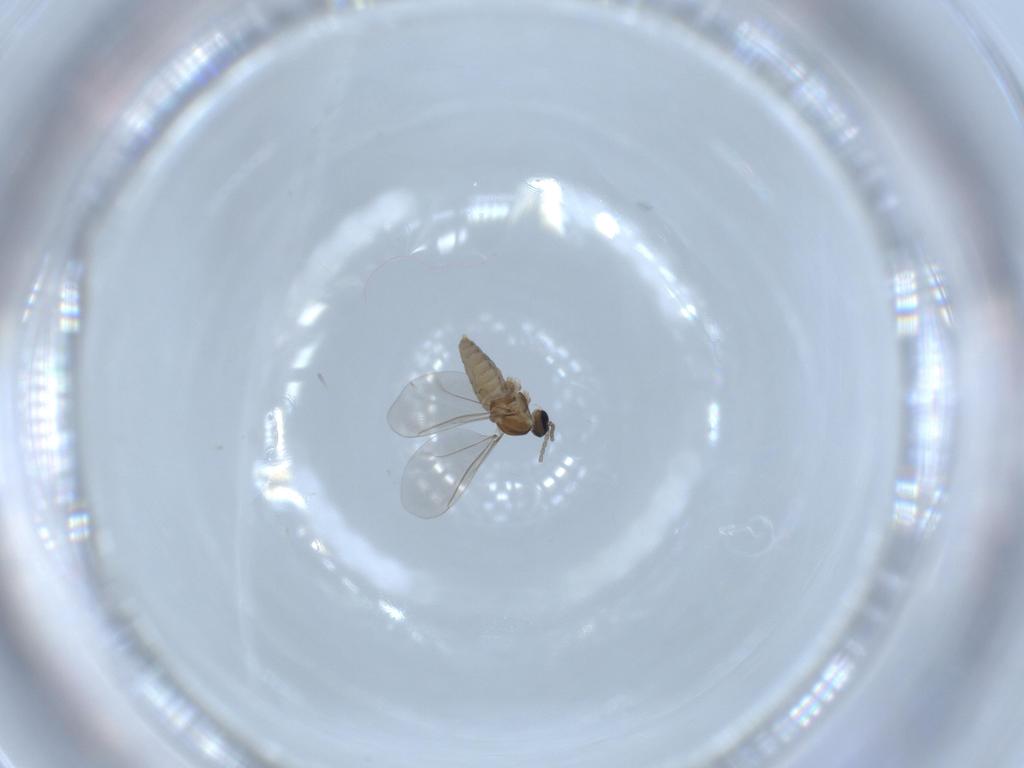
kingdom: Animalia
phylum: Arthropoda
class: Insecta
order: Diptera
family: Cecidomyiidae
